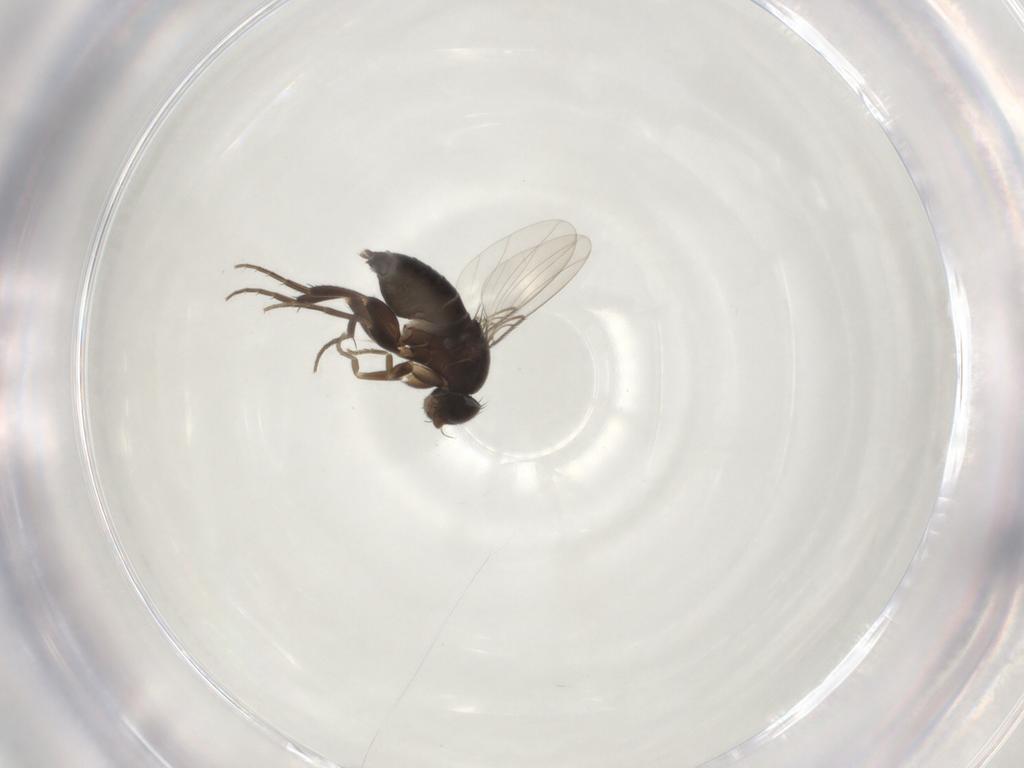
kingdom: Animalia
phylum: Arthropoda
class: Insecta
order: Diptera
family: Phoridae
